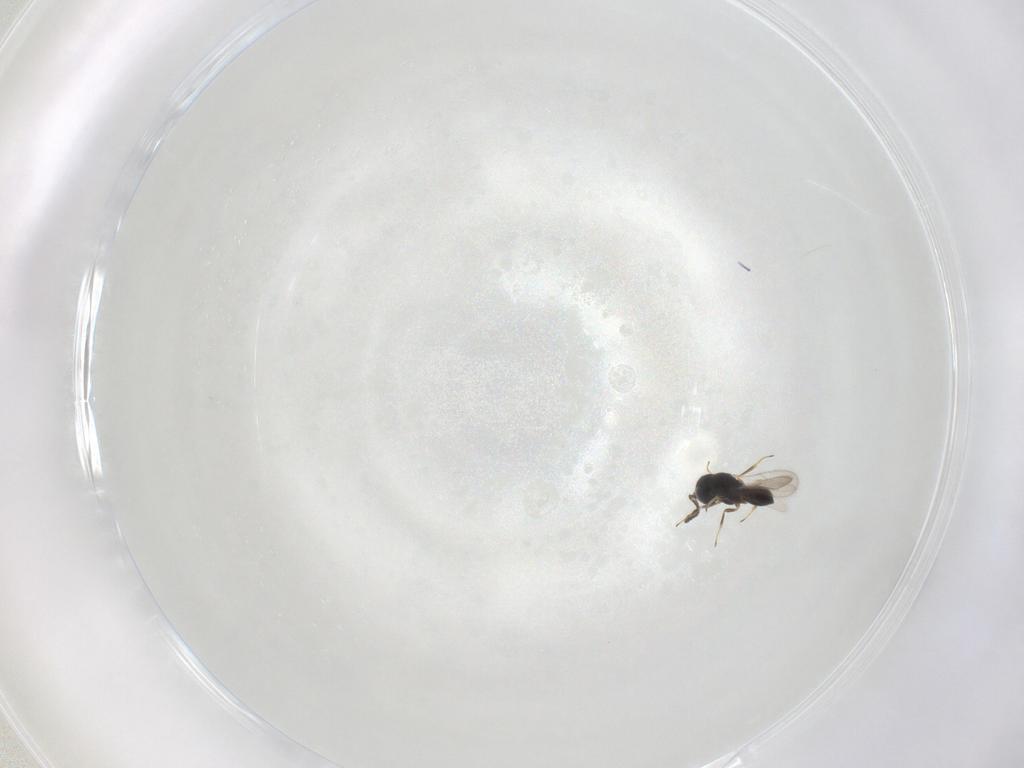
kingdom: Animalia
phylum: Arthropoda
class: Insecta
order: Hymenoptera
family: Scelionidae
